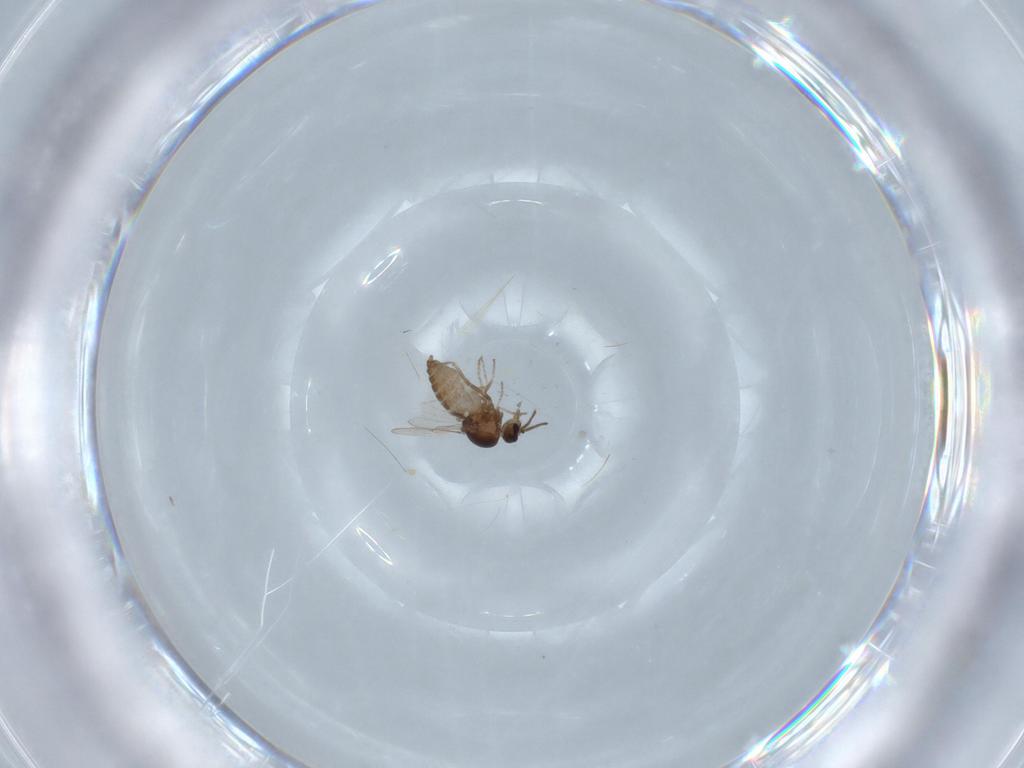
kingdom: Animalia
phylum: Arthropoda
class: Insecta
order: Diptera
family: Ceratopogonidae
